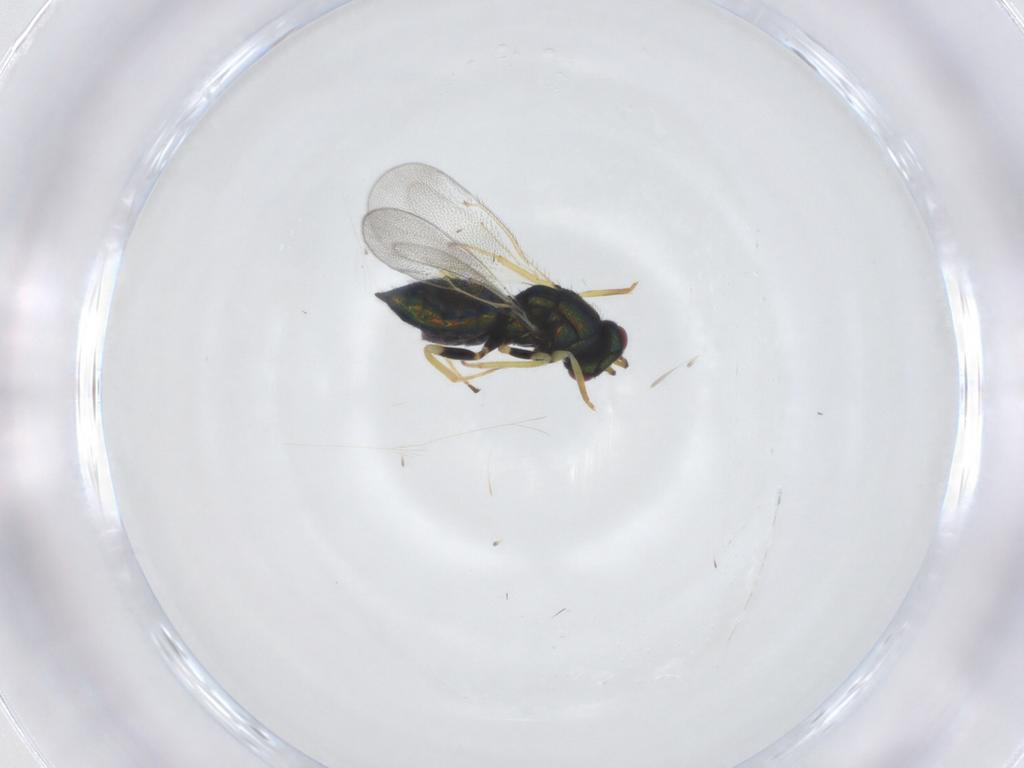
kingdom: Animalia
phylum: Arthropoda
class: Insecta
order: Hymenoptera
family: Eulophidae
